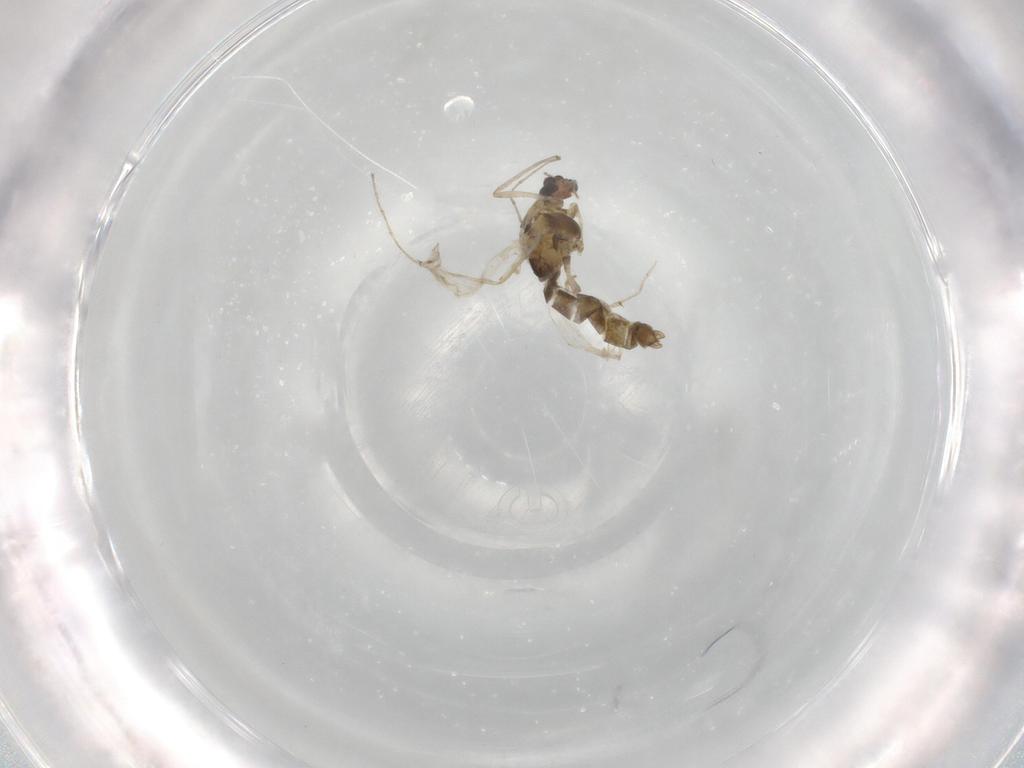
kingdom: Animalia
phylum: Arthropoda
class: Insecta
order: Diptera
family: Chironomidae
